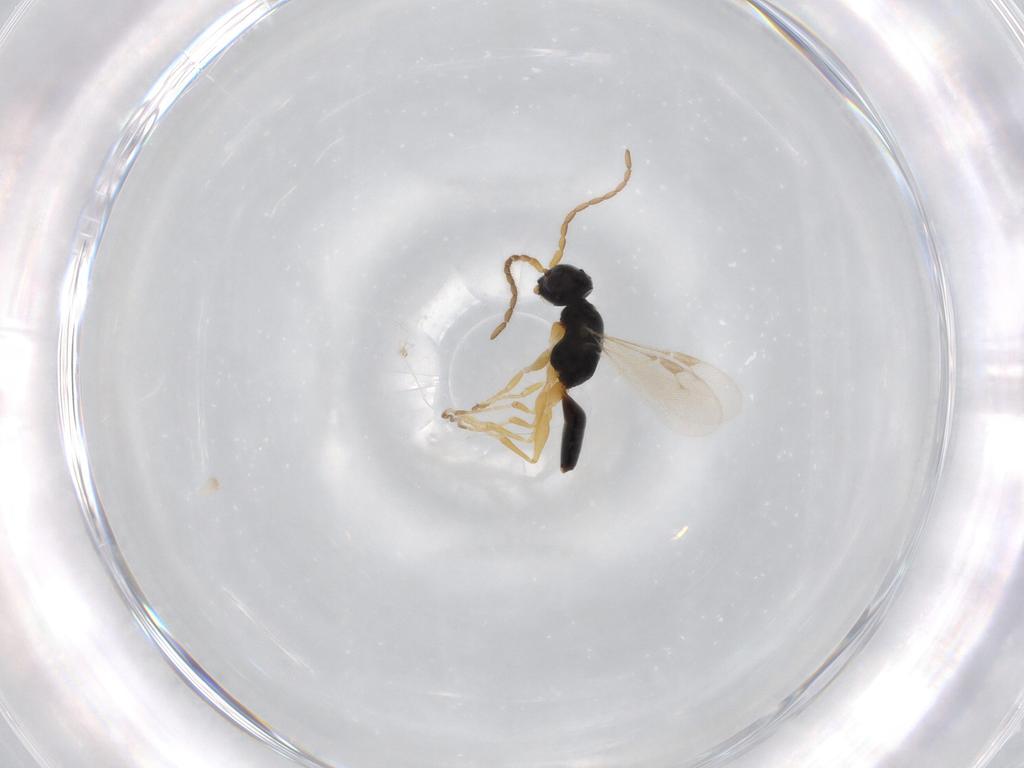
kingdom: Animalia
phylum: Arthropoda
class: Insecta
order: Hymenoptera
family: Dryinidae
